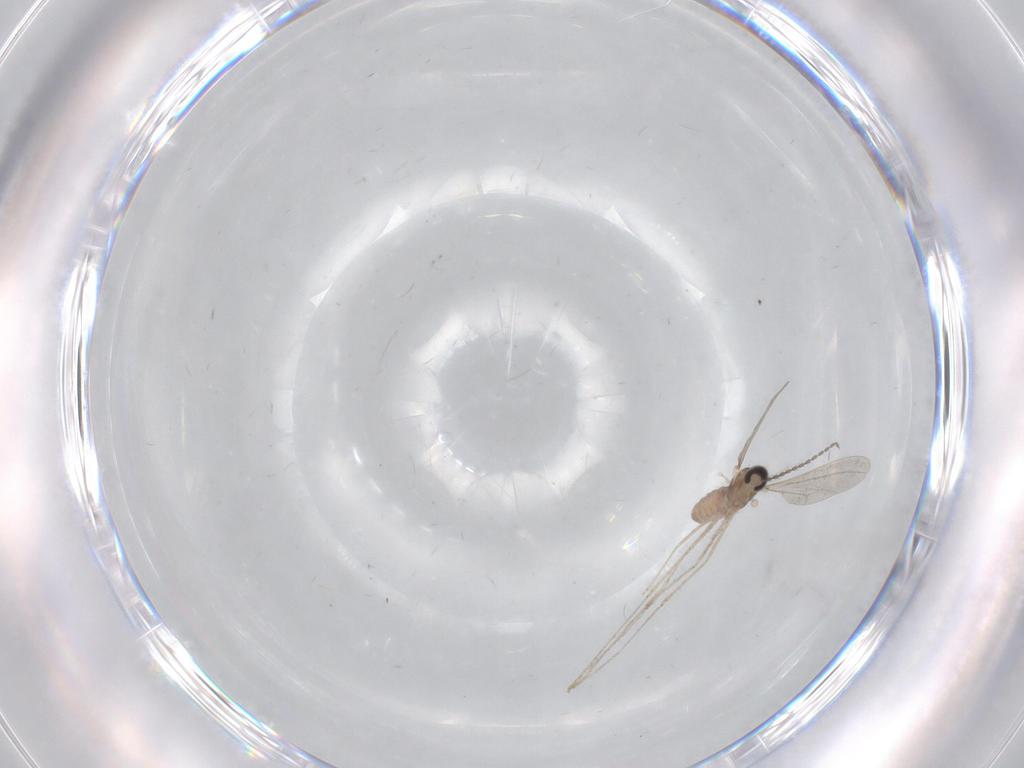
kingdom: Animalia
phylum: Arthropoda
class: Insecta
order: Diptera
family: Cecidomyiidae
